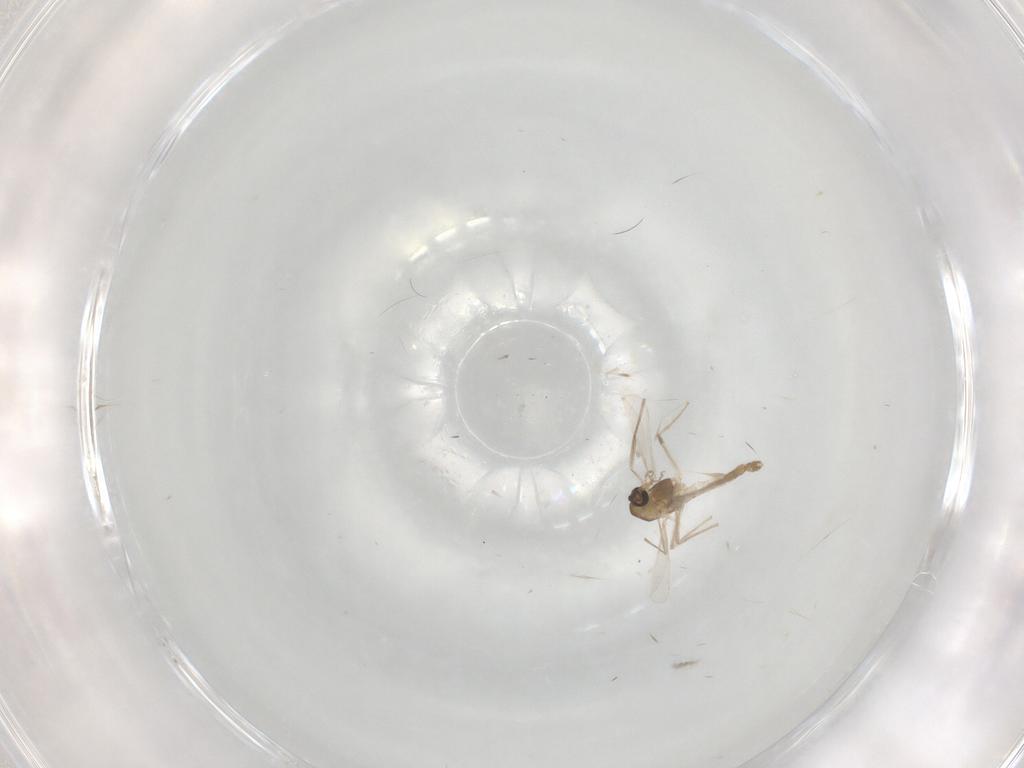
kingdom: Animalia
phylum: Arthropoda
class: Insecta
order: Diptera
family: Chironomidae
